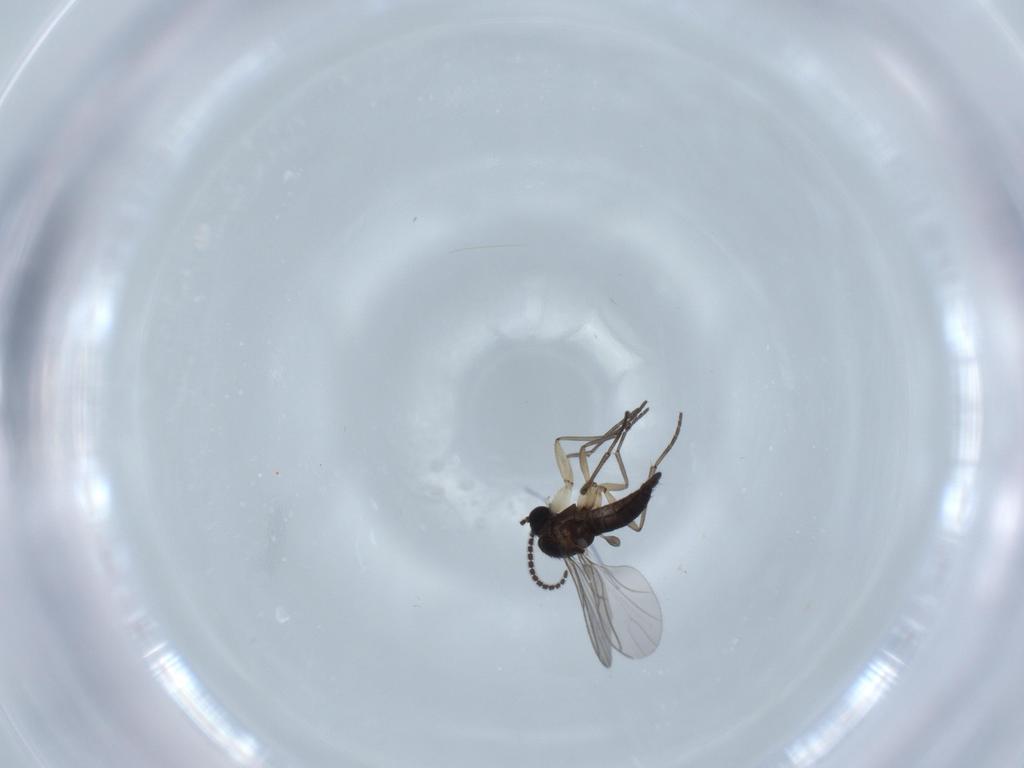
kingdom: Animalia
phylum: Arthropoda
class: Insecta
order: Diptera
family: Sciaridae
